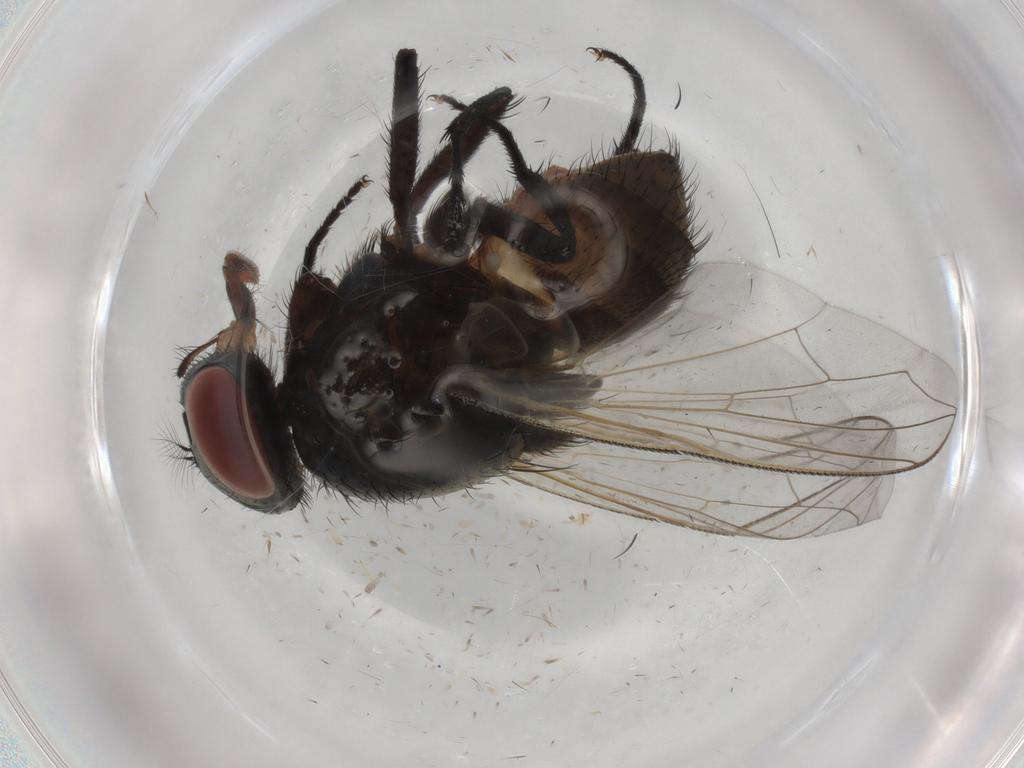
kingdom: Animalia
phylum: Arthropoda
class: Insecta
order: Diptera
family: Muscidae
